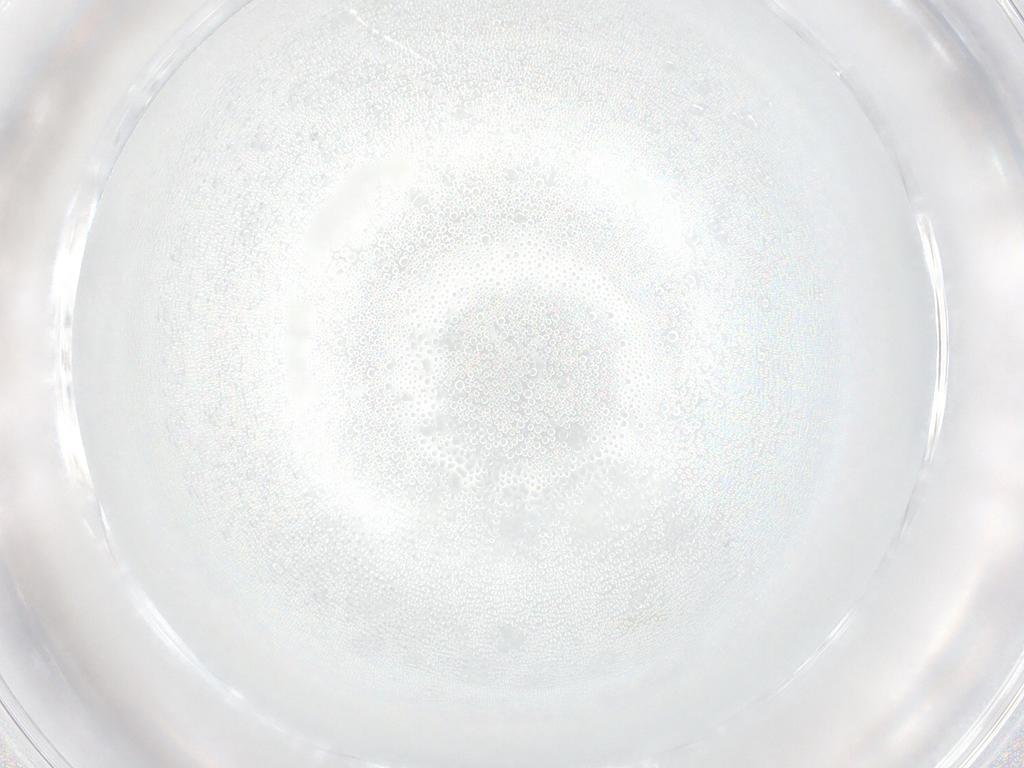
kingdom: Animalia
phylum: Arthropoda
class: Insecta
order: Diptera
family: Cecidomyiidae
